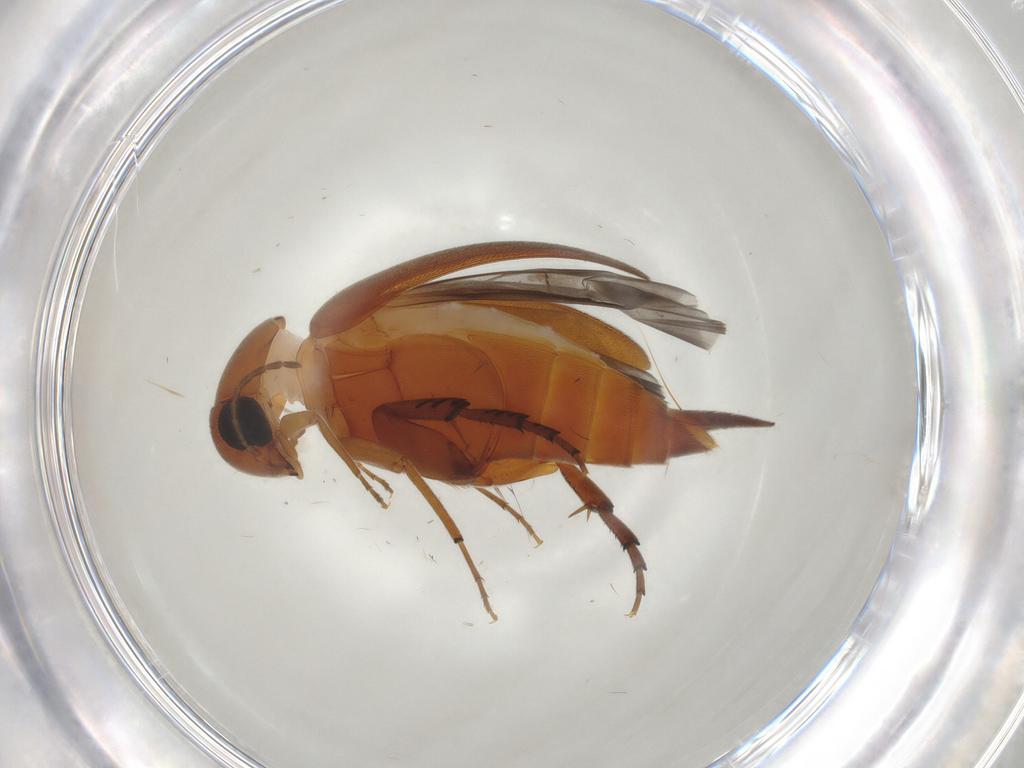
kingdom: Animalia
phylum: Arthropoda
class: Insecta
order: Coleoptera
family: Mordellidae
